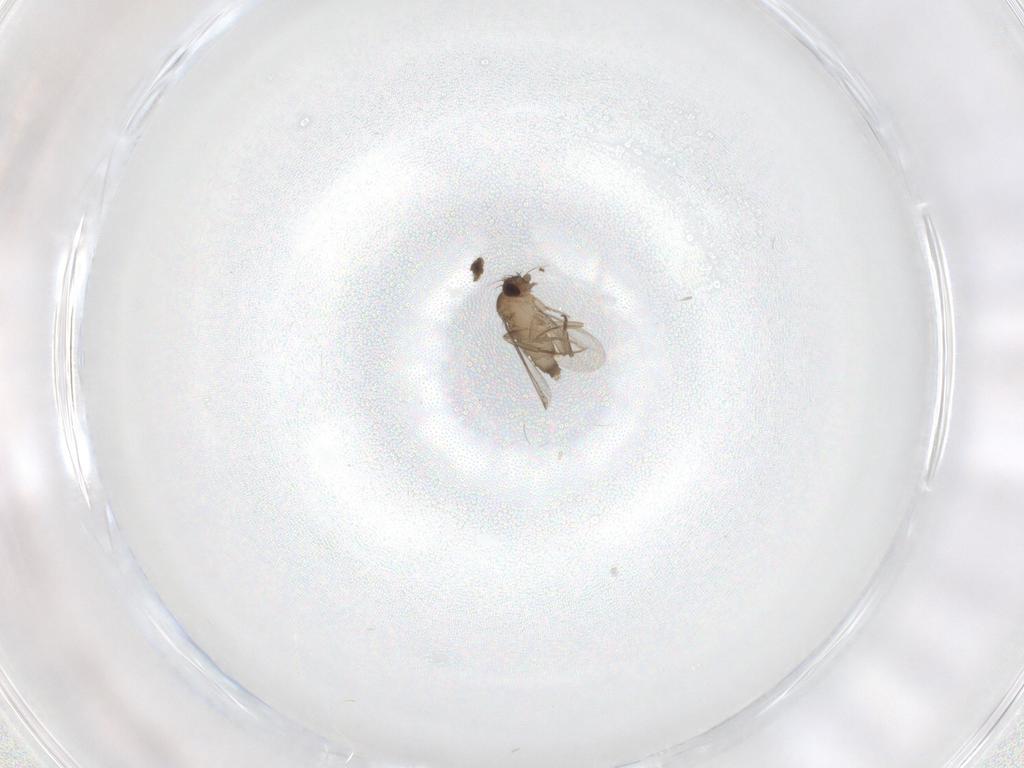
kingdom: Animalia
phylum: Arthropoda
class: Insecta
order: Diptera
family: Phoridae
